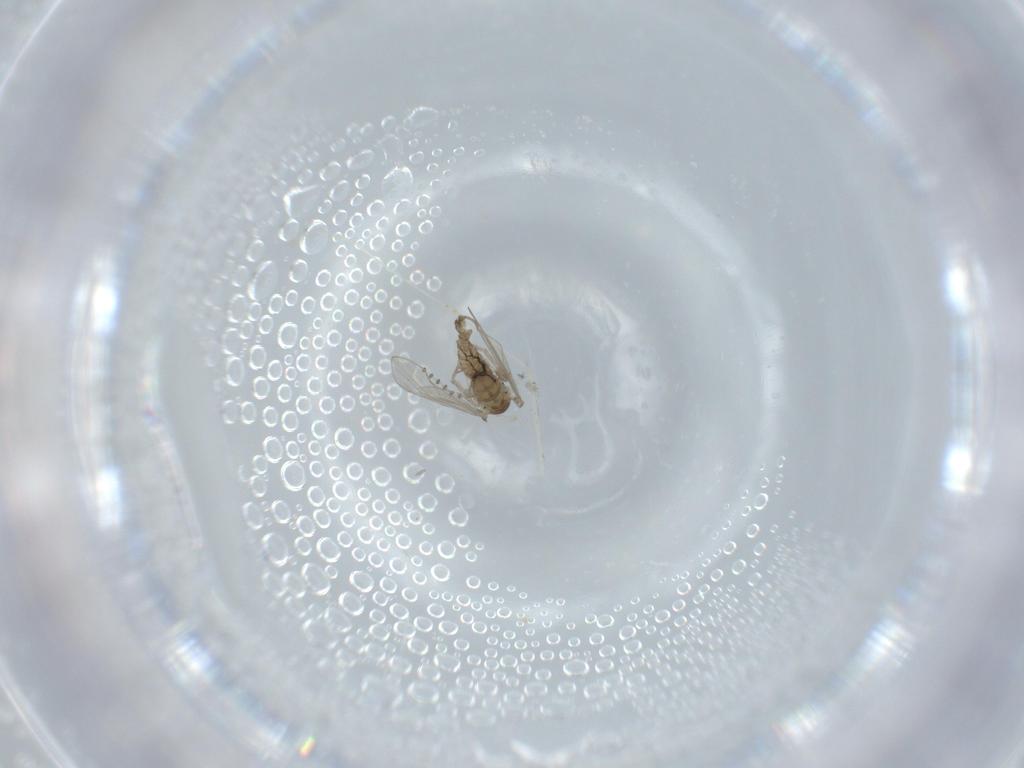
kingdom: Animalia
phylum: Arthropoda
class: Insecta
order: Diptera
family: Psychodidae
